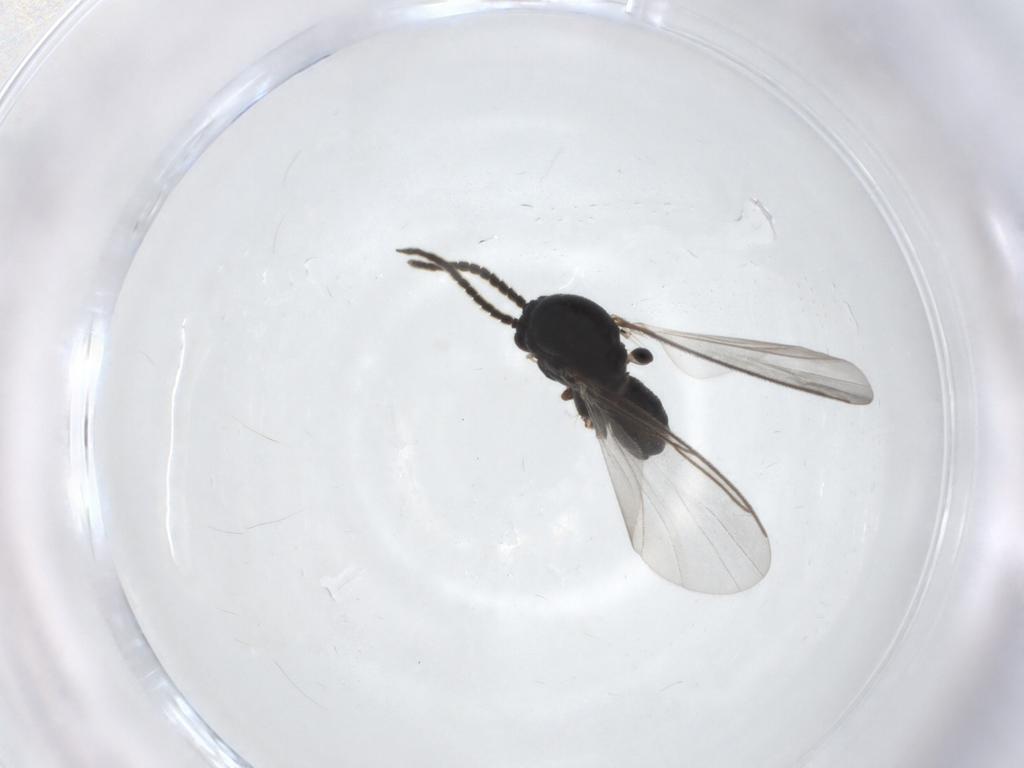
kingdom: Animalia
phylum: Arthropoda
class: Insecta
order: Diptera
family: Mycetophilidae
